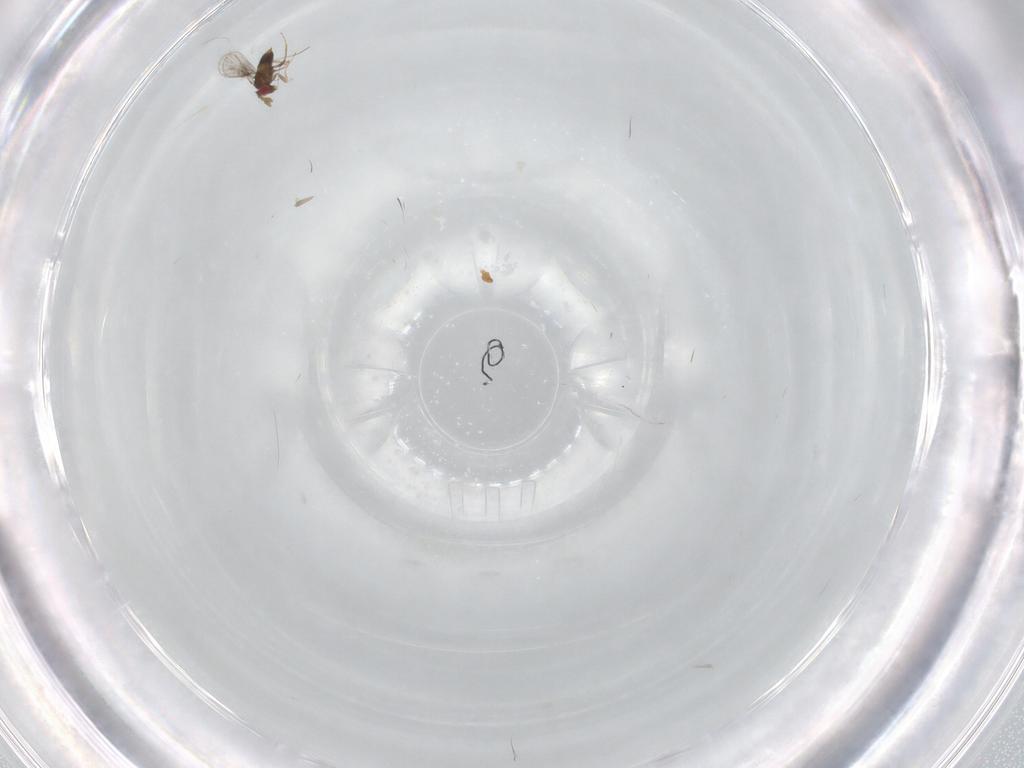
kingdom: Animalia
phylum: Arthropoda
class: Insecta
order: Hymenoptera
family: Trichogrammatidae
